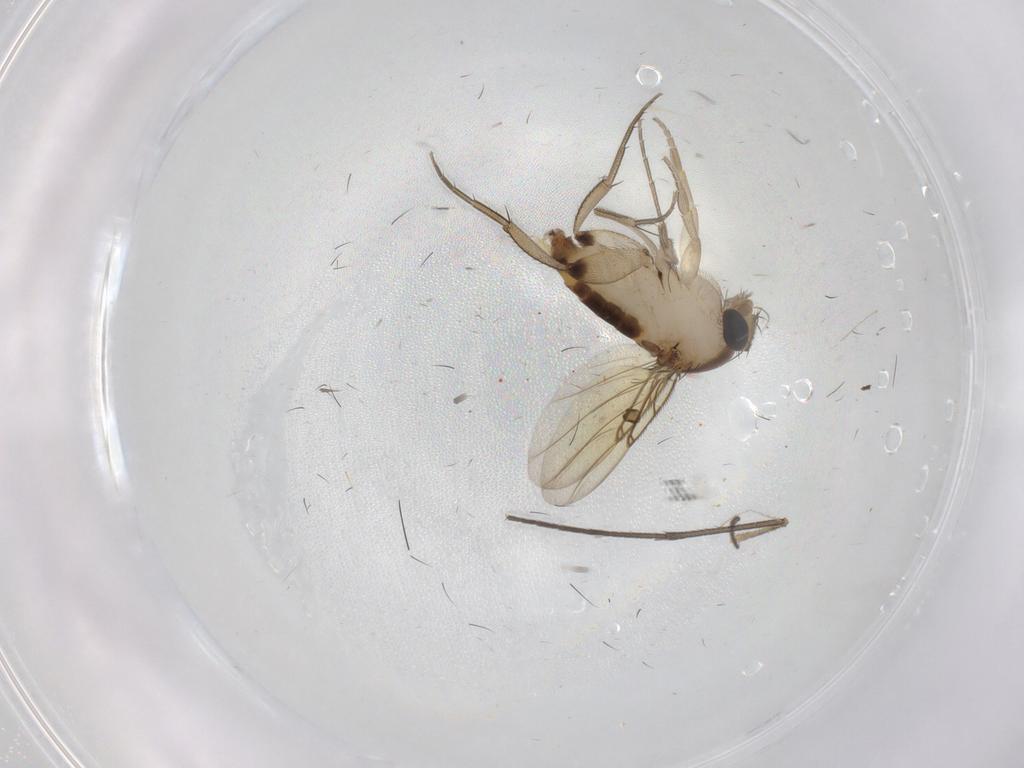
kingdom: Animalia
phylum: Arthropoda
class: Insecta
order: Diptera
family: Phoridae
